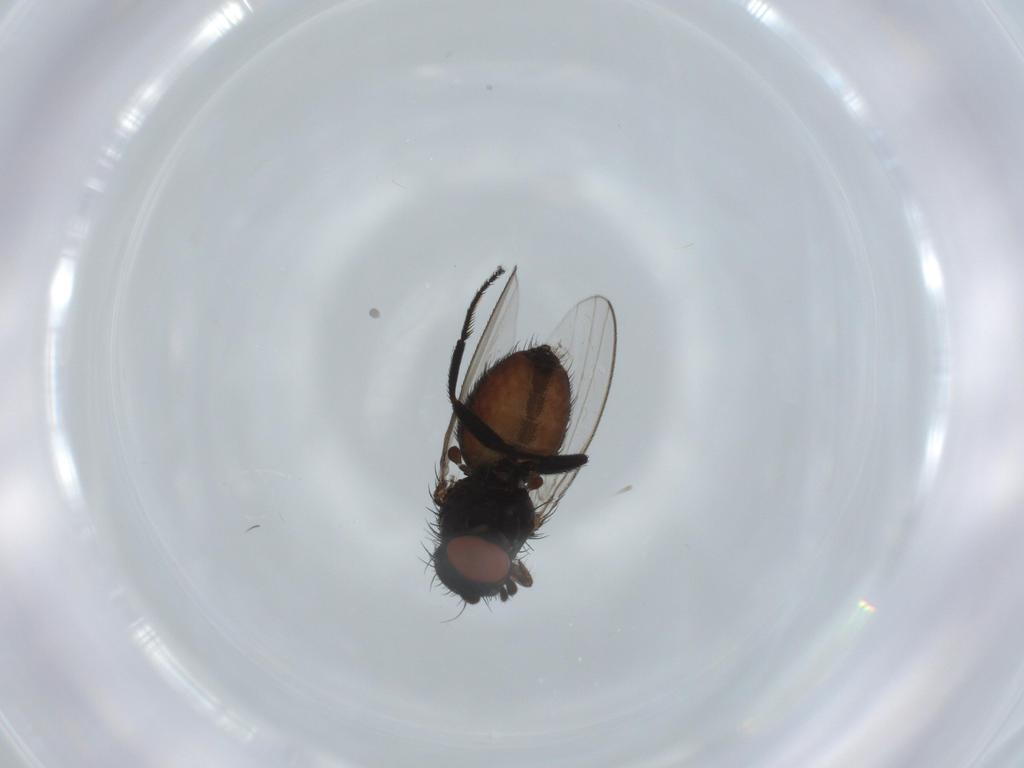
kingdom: Animalia
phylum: Arthropoda
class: Insecta
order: Diptera
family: Milichiidae
